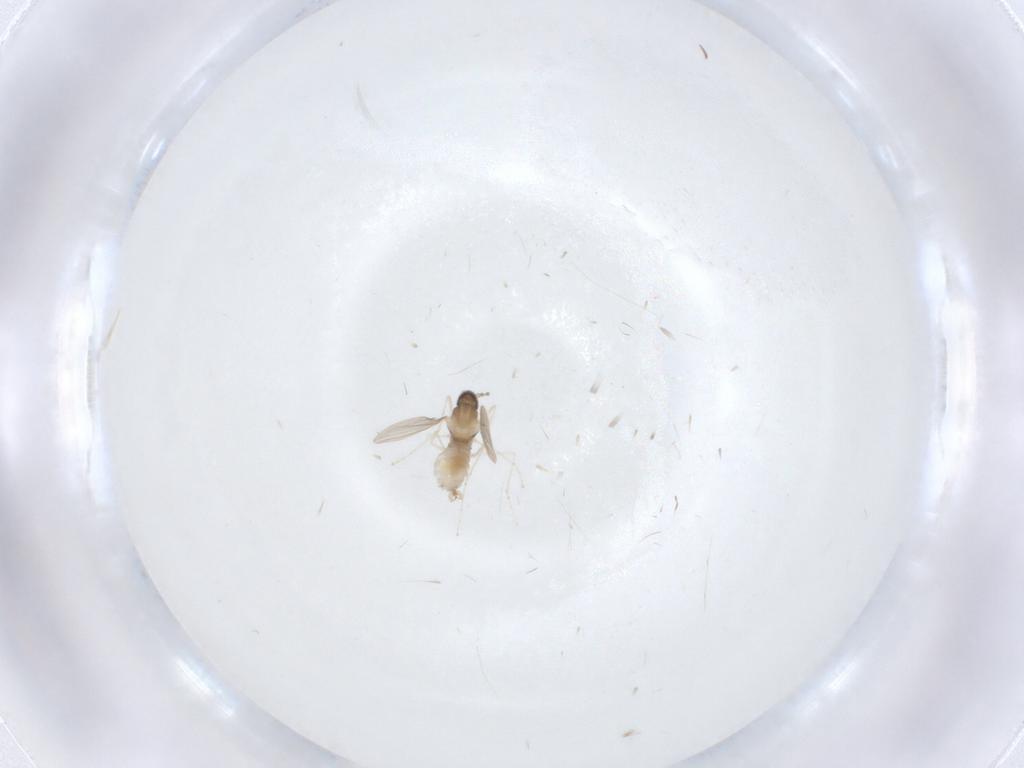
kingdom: Animalia
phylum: Arthropoda
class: Insecta
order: Diptera
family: Cecidomyiidae
